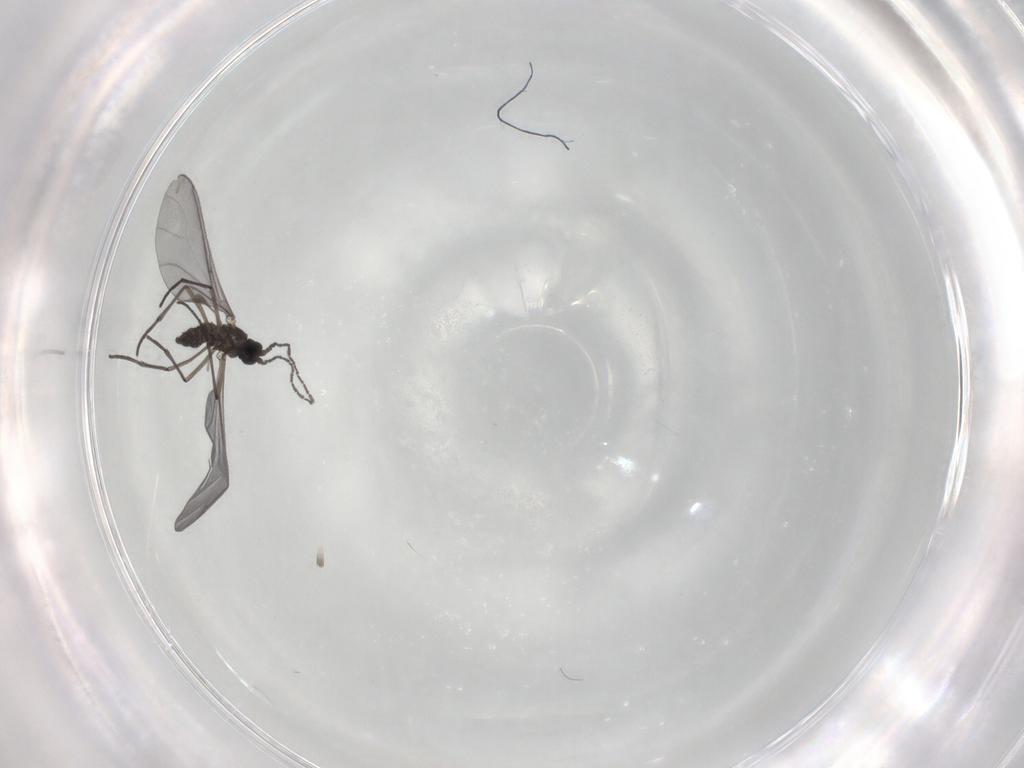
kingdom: Animalia
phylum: Arthropoda
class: Insecta
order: Diptera
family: Sciaridae
